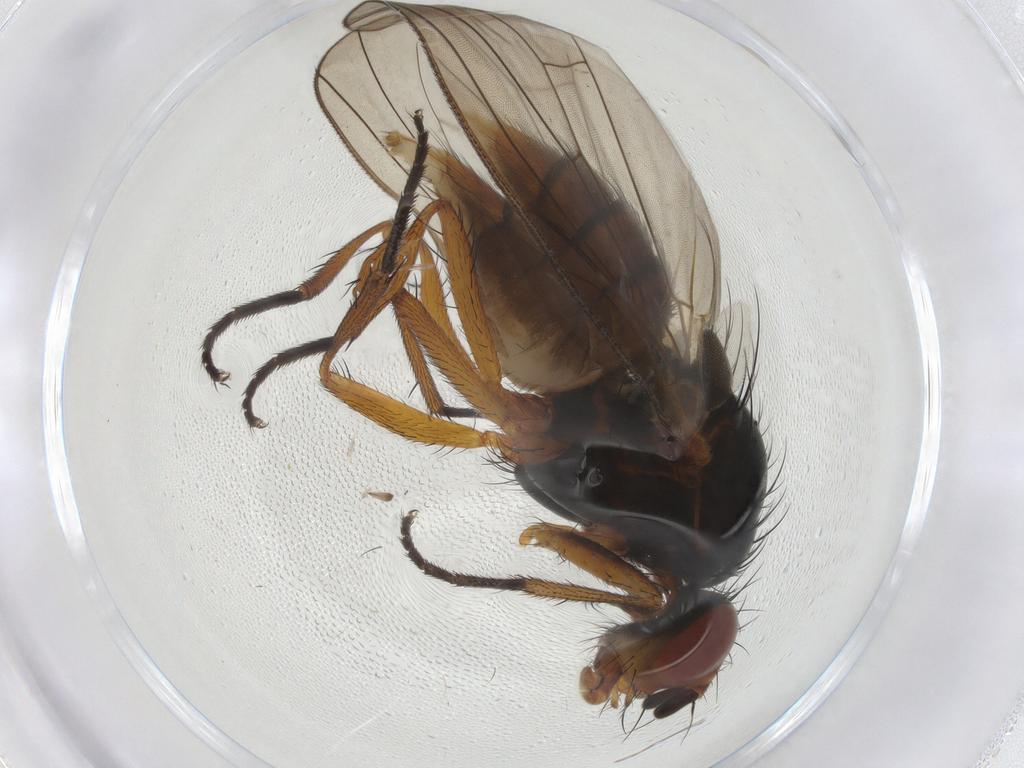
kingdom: Animalia
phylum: Arthropoda
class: Insecta
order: Diptera
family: Anthomyiidae
